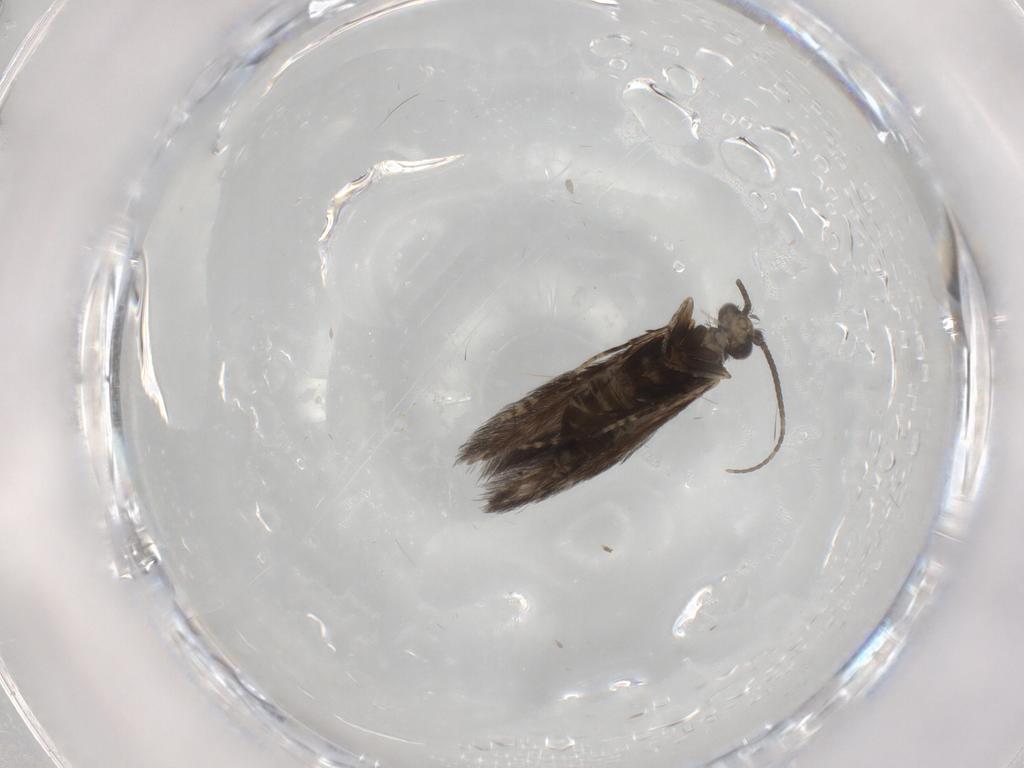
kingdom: Animalia
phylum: Arthropoda
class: Insecta
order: Trichoptera
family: Hydroptilidae
